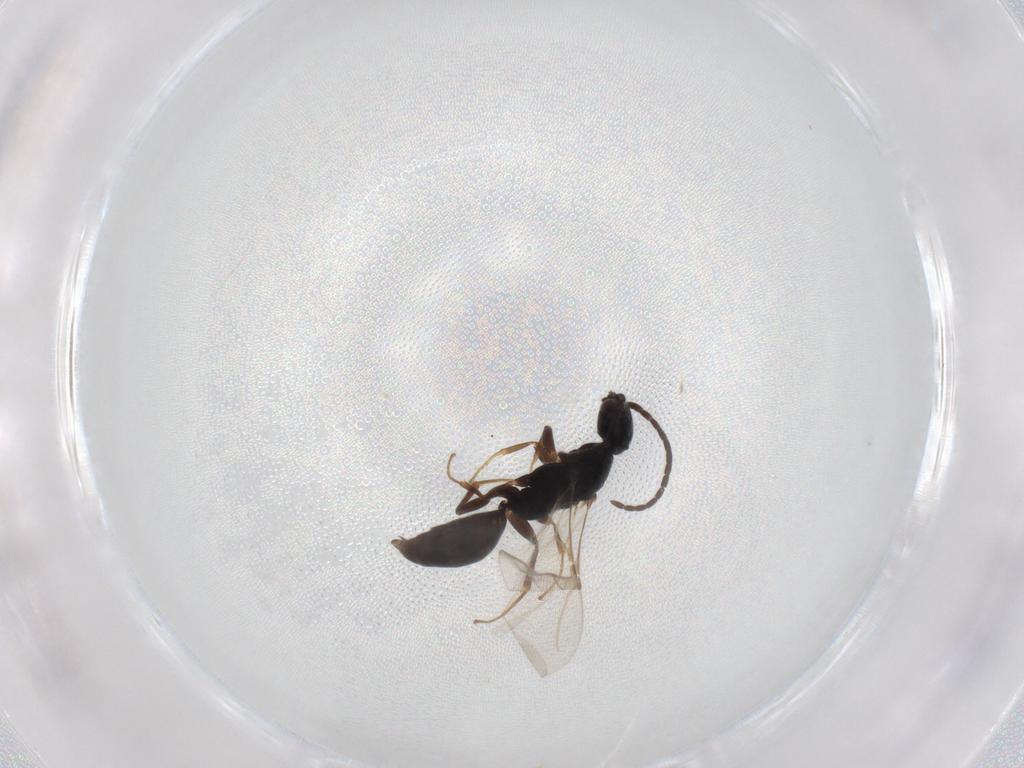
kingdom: Animalia
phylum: Arthropoda
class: Insecta
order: Hymenoptera
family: Bethylidae
